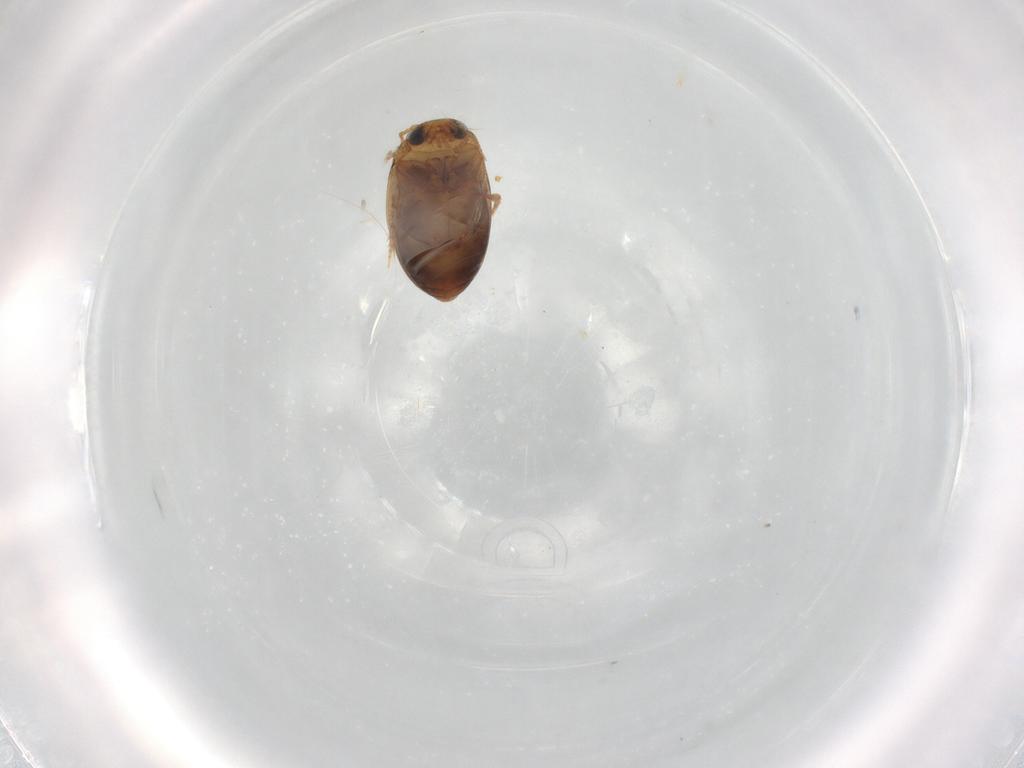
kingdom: Animalia
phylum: Arthropoda
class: Insecta
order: Coleoptera
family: Dytiscidae
